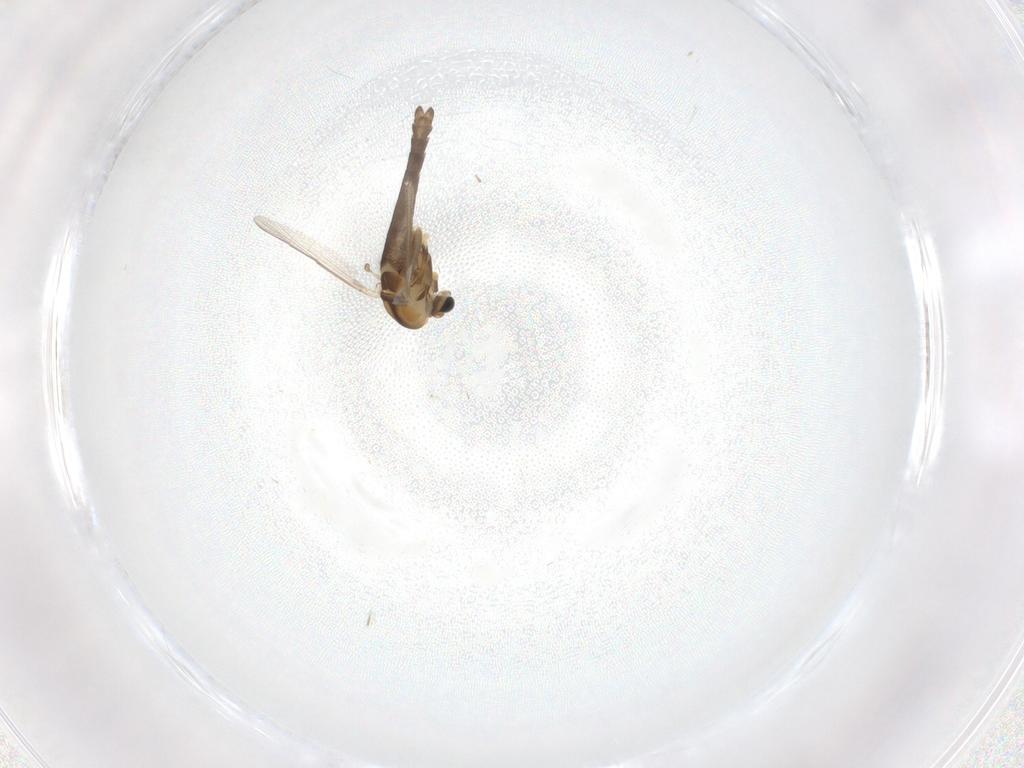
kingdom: Animalia
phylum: Arthropoda
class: Insecta
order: Diptera
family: Chironomidae
